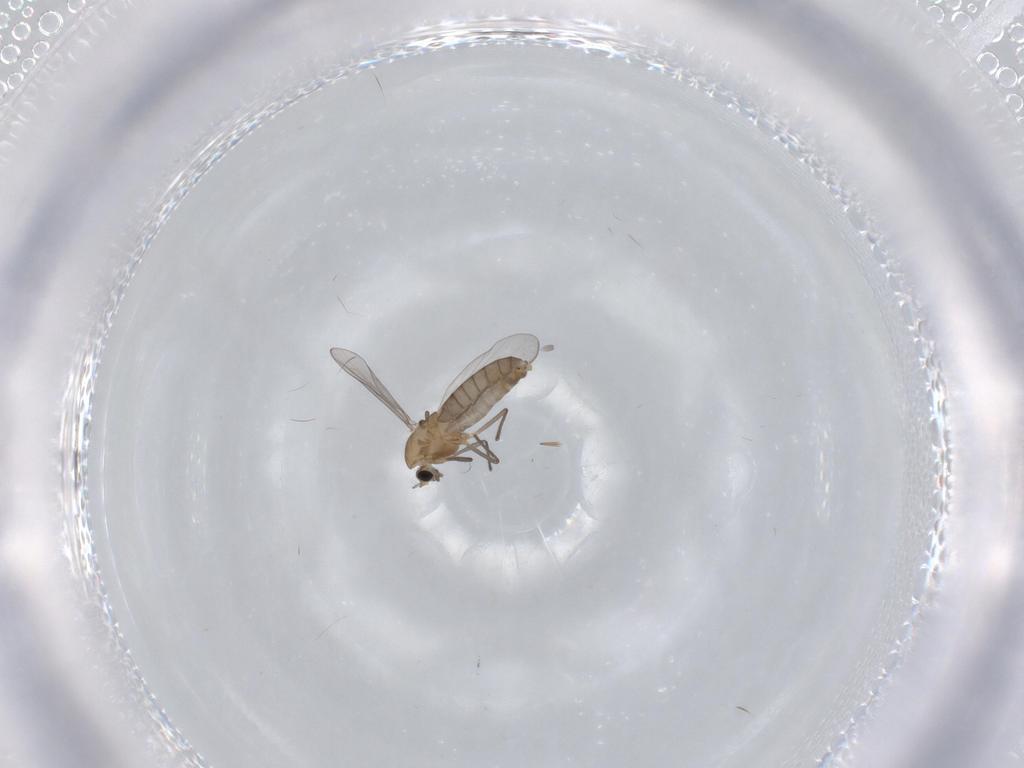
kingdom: Animalia
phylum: Arthropoda
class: Insecta
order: Diptera
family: Chironomidae
